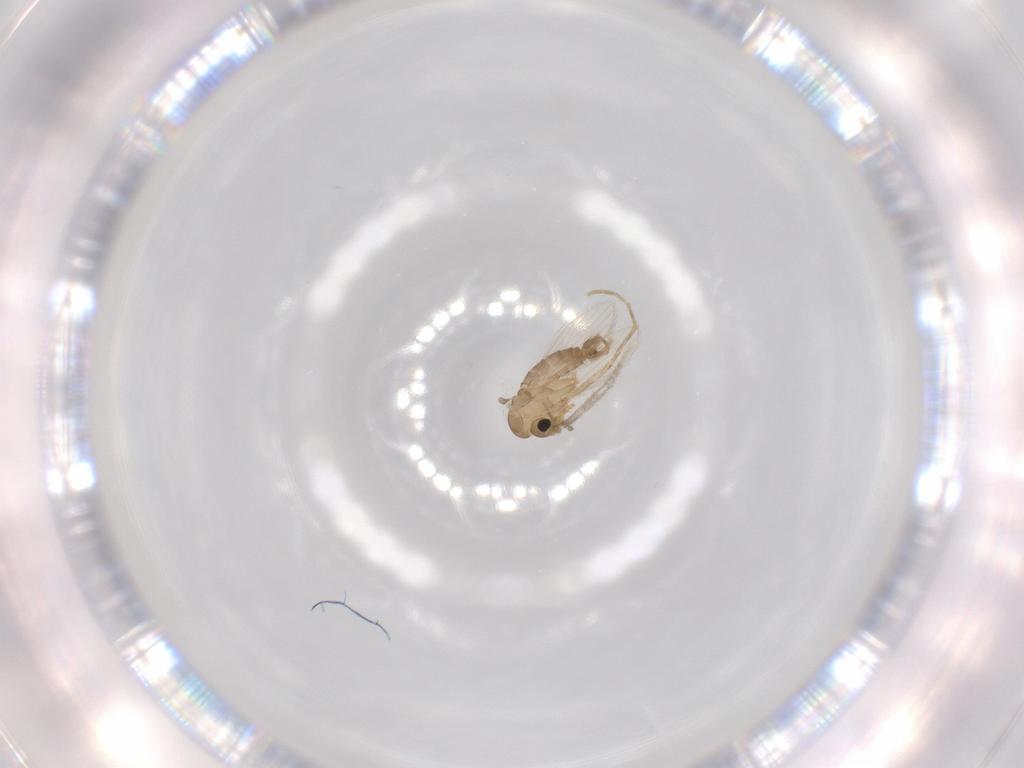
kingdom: Animalia
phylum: Arthropoda
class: Insecta
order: Diptera
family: Psychodidae
